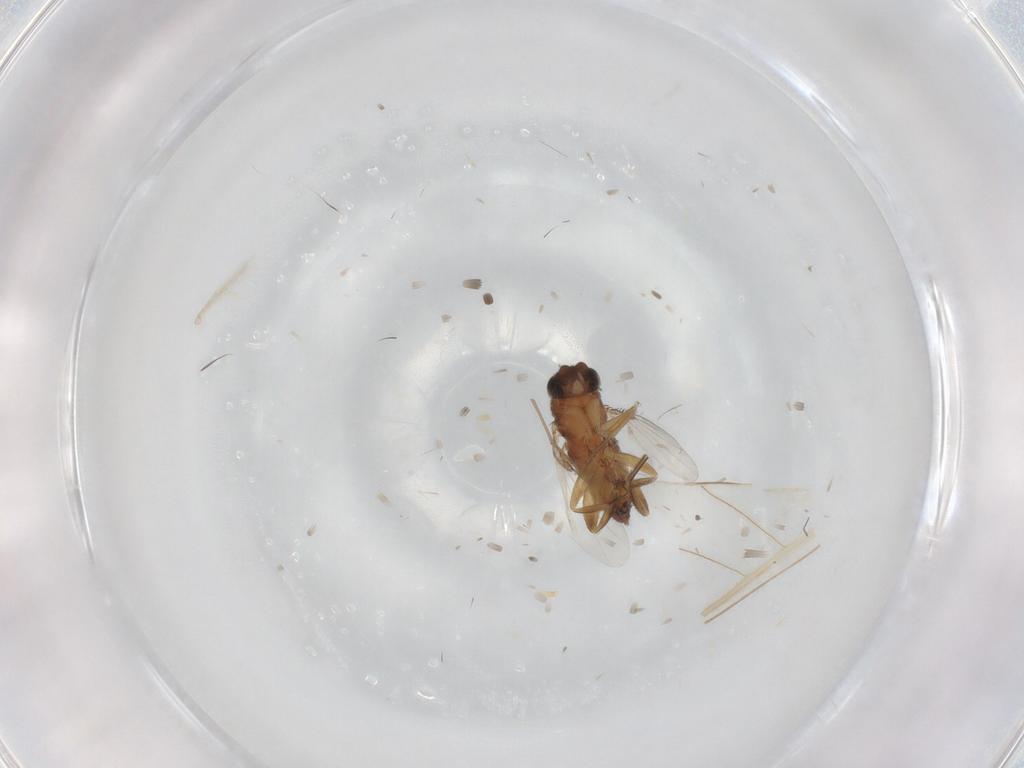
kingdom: Animalia
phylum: Arthropoda
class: Insecta
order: Diptera
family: Phoridae
